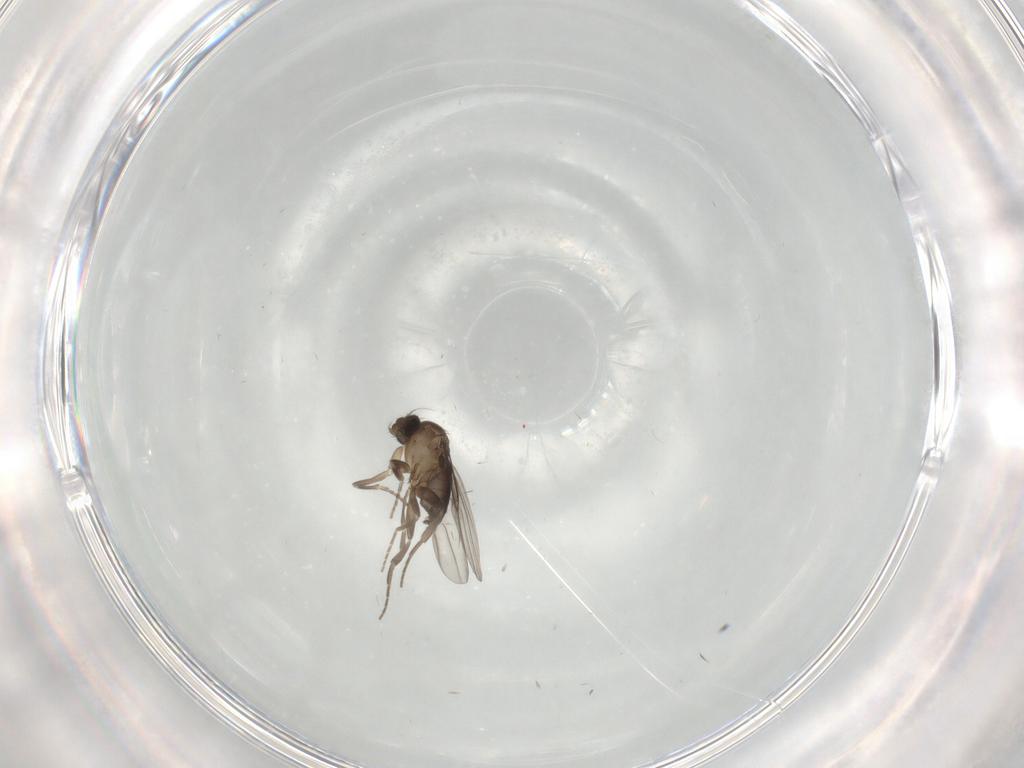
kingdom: Animalia
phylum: Arthropoda
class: Insecta
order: Diptera
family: Phoridae
